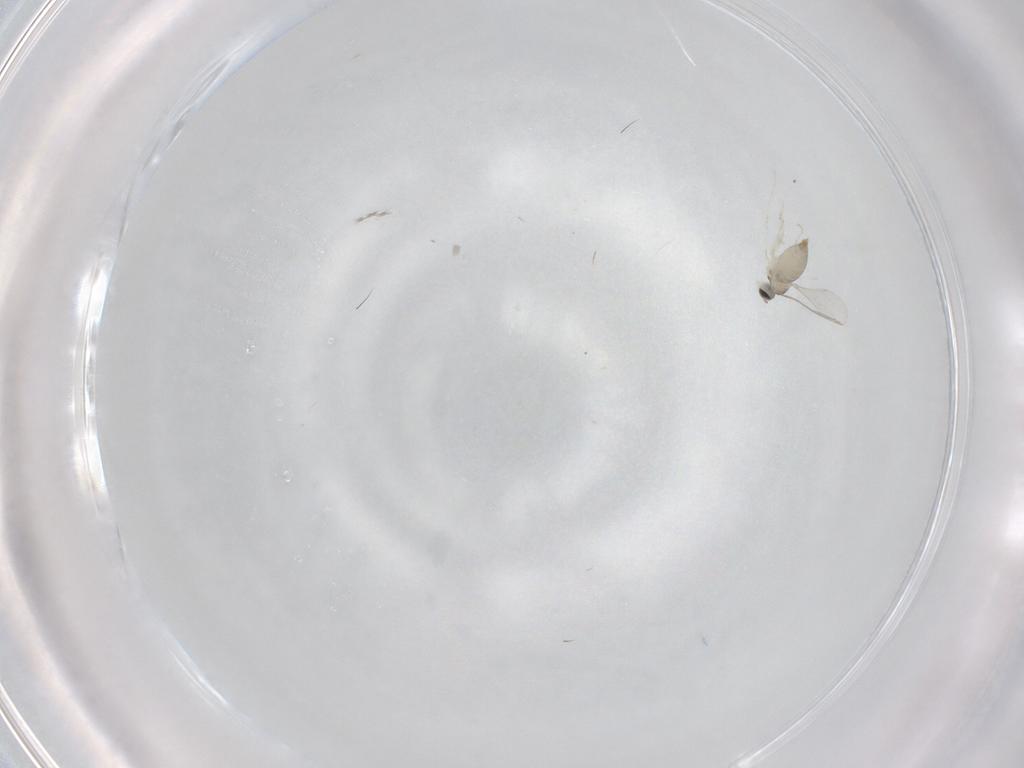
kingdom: Animalia
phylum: Arthropoda
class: Insecta
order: Diptera
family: Cecidomyiidae
